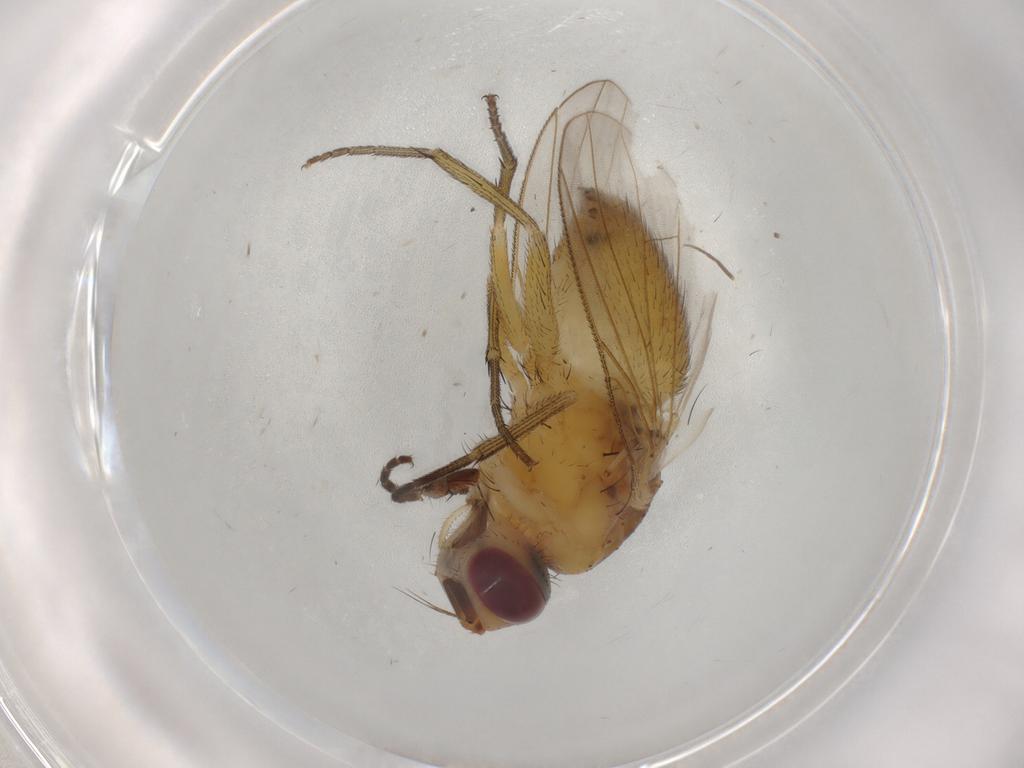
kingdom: Animalia
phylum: Arthropoda
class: Insecta
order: Diptera
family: Muscidae
